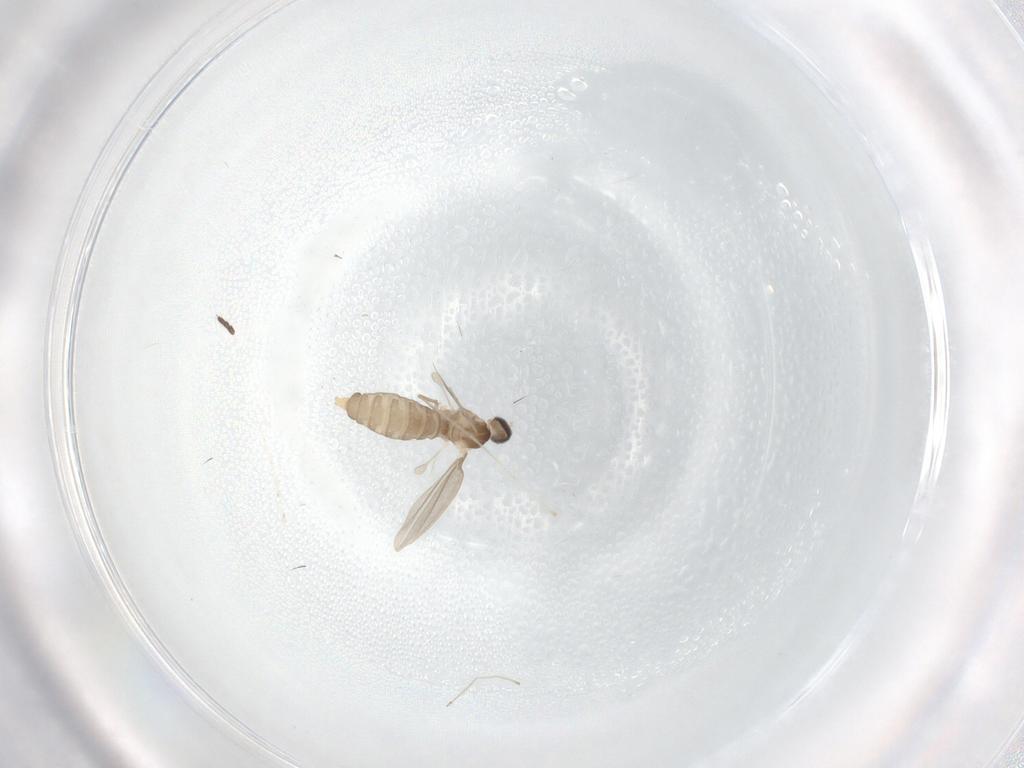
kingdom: Animalia
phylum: Arthropoda
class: Insecta
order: Diptera
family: Cecidomyiidae
